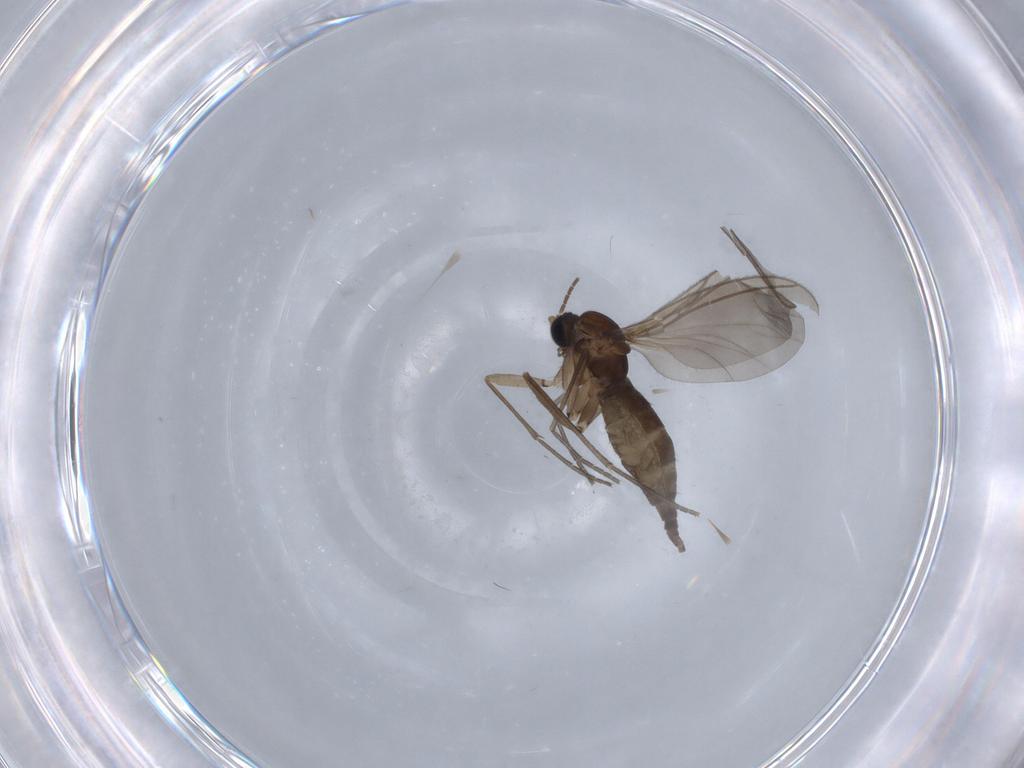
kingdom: Animalia
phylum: Arthropoda
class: Insecta
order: Diptera
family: Sciaridae
